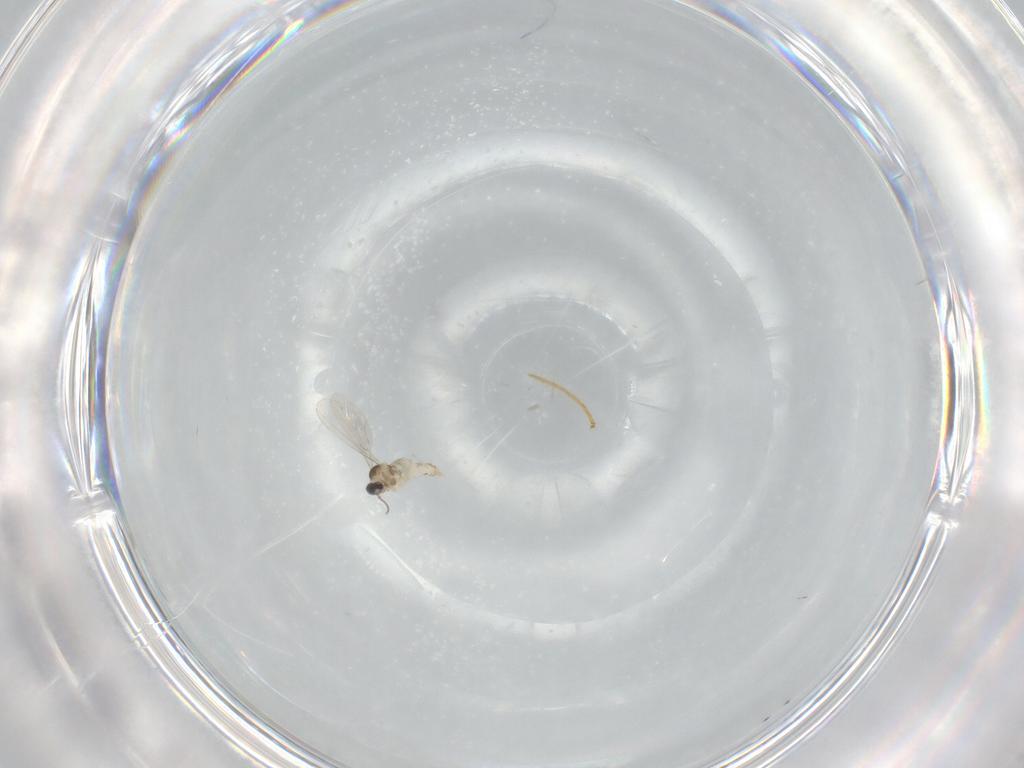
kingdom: Animalia
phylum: Arthropoda
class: Insecta
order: Diptera
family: Cecidomyiidae
